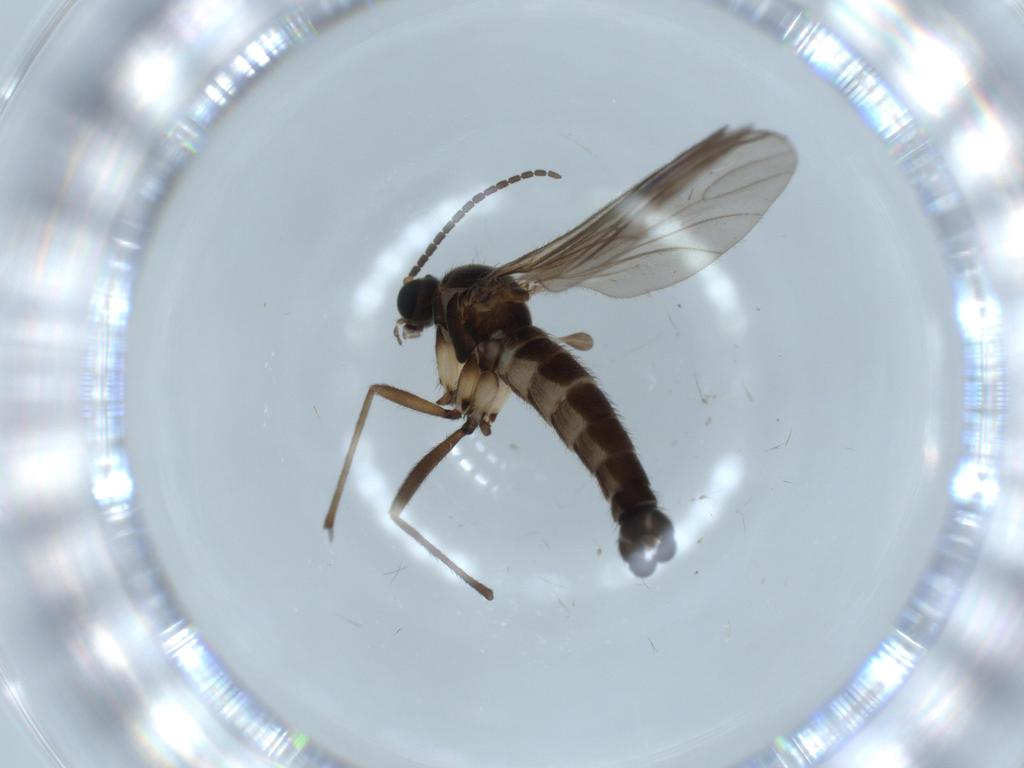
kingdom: Animalia
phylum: Arthropoda
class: Insecta
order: Diptera
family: Sciaridae
